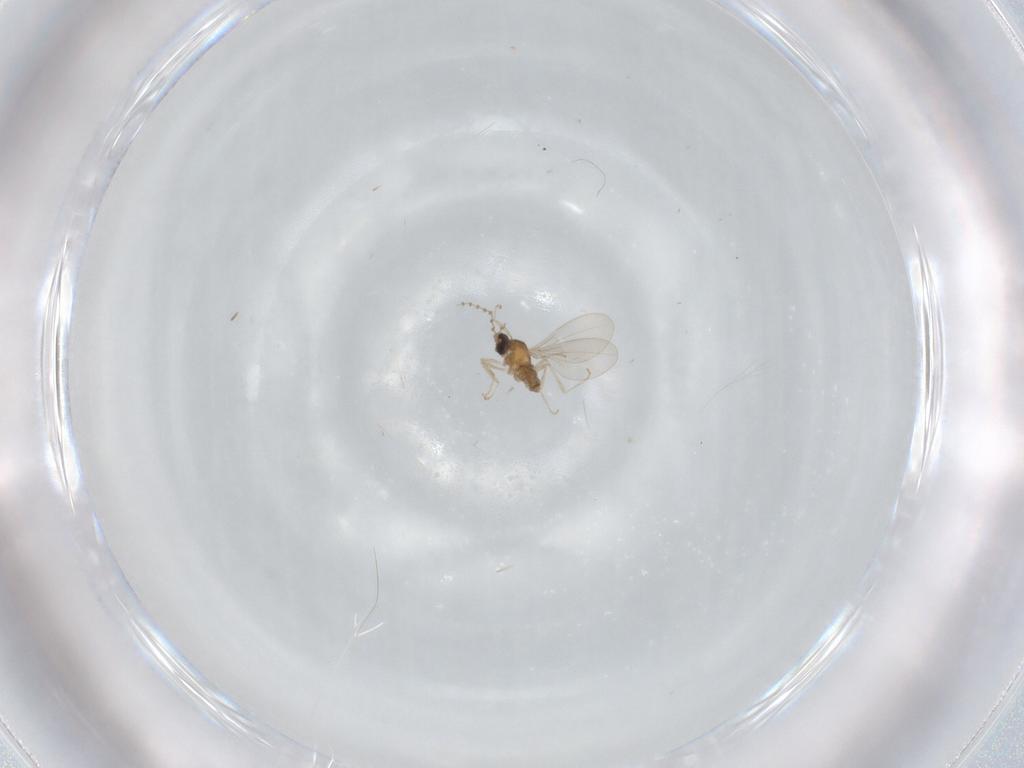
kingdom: Animalia
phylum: Arthropoda
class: Insecta
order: Diptera
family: Cecidomyiidae
